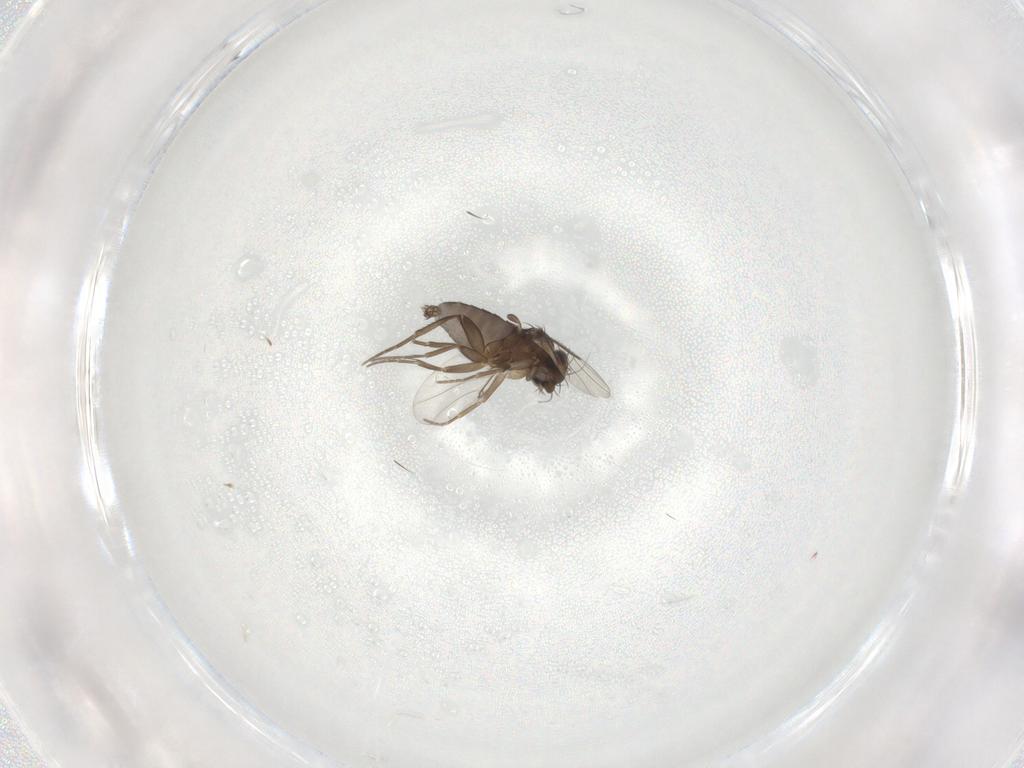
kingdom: Animalia
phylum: Arthropoda
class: Insecta
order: Diptera
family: Phoridae
